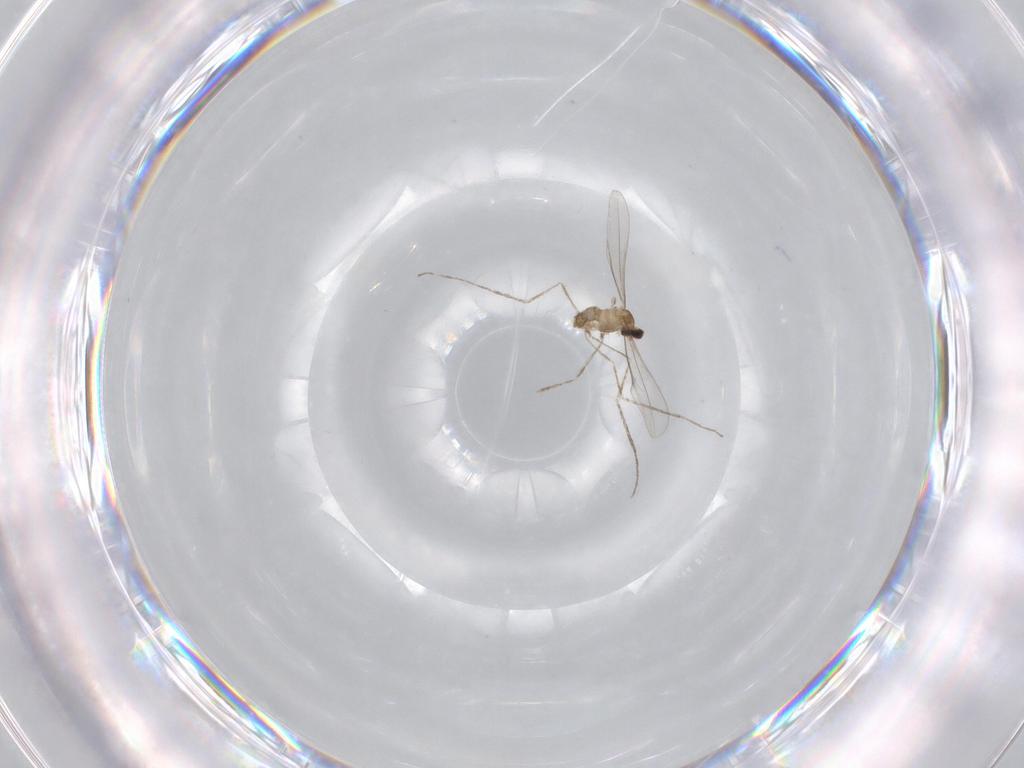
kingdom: Animalia
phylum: Arthropoda
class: Insecta
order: Diptera
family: Cecidomyiidae
